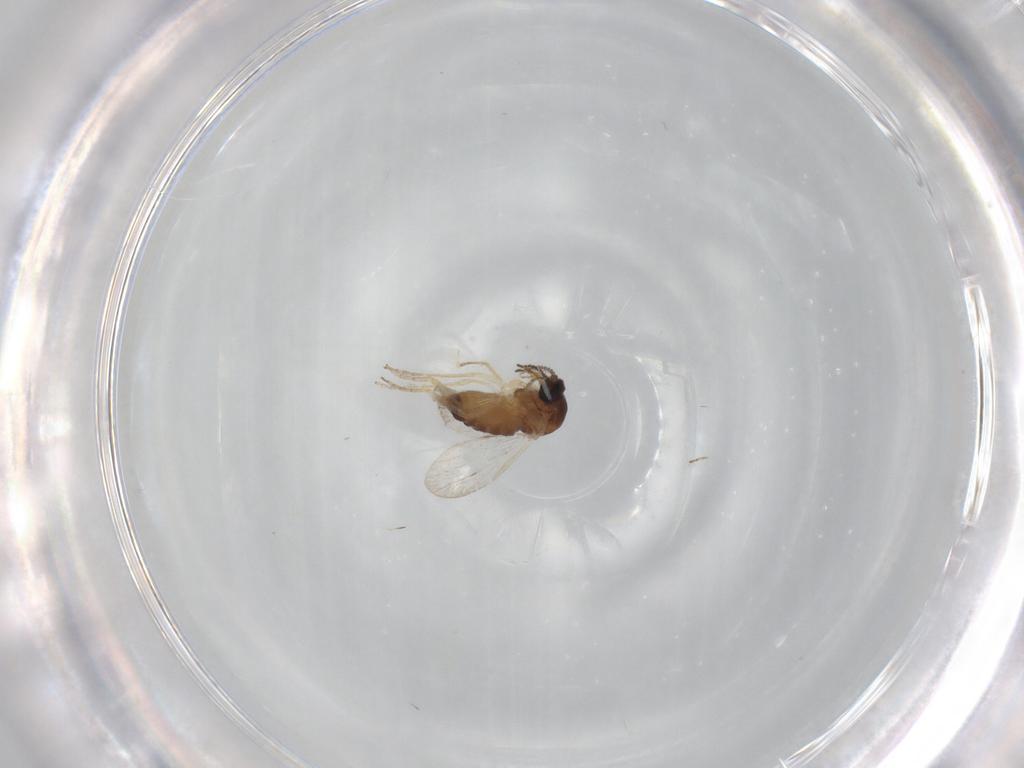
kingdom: Animalia
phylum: Arthropoda
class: Insecta
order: Diptera
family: Ceratopogonidae
